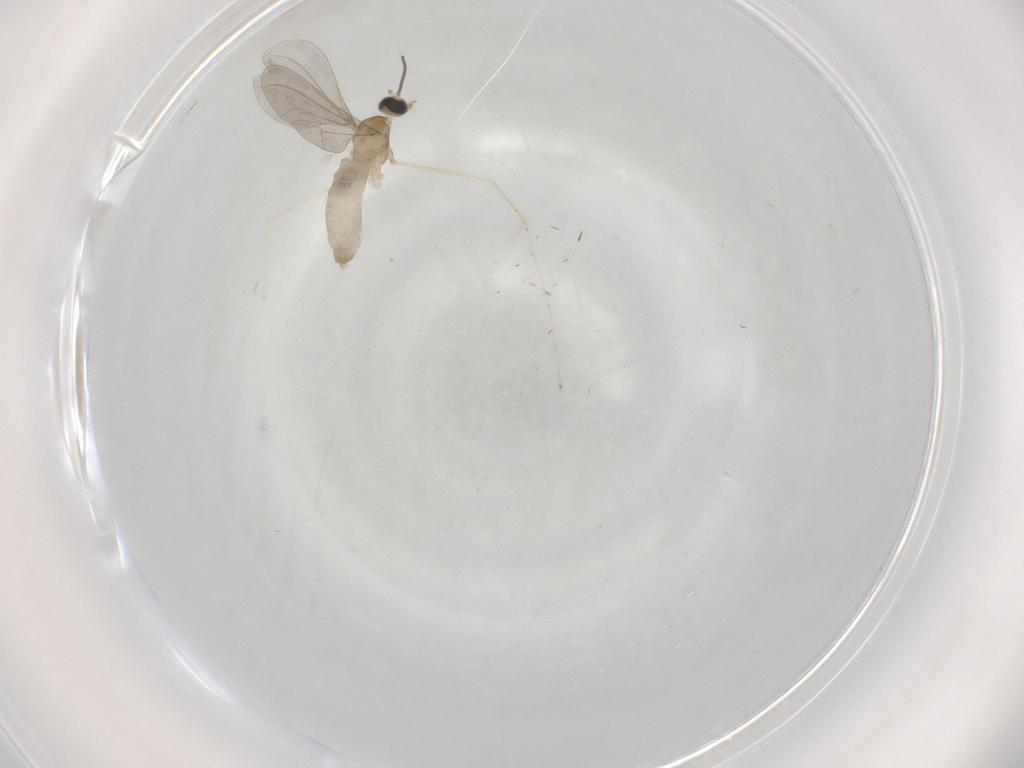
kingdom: Animalia
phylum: Arthropoda
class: Insecta
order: Diptera
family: Cecidomyiidae
